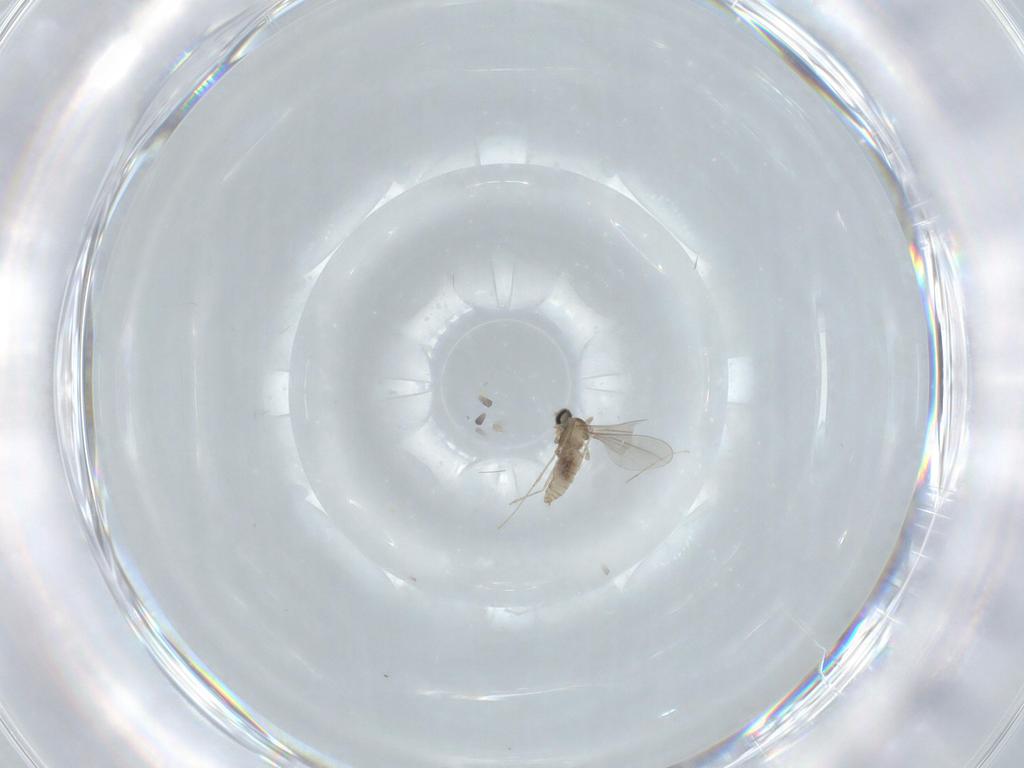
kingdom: Animalia
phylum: Arthropoda
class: Insecta
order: Diptera
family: Cecidomyiidae
